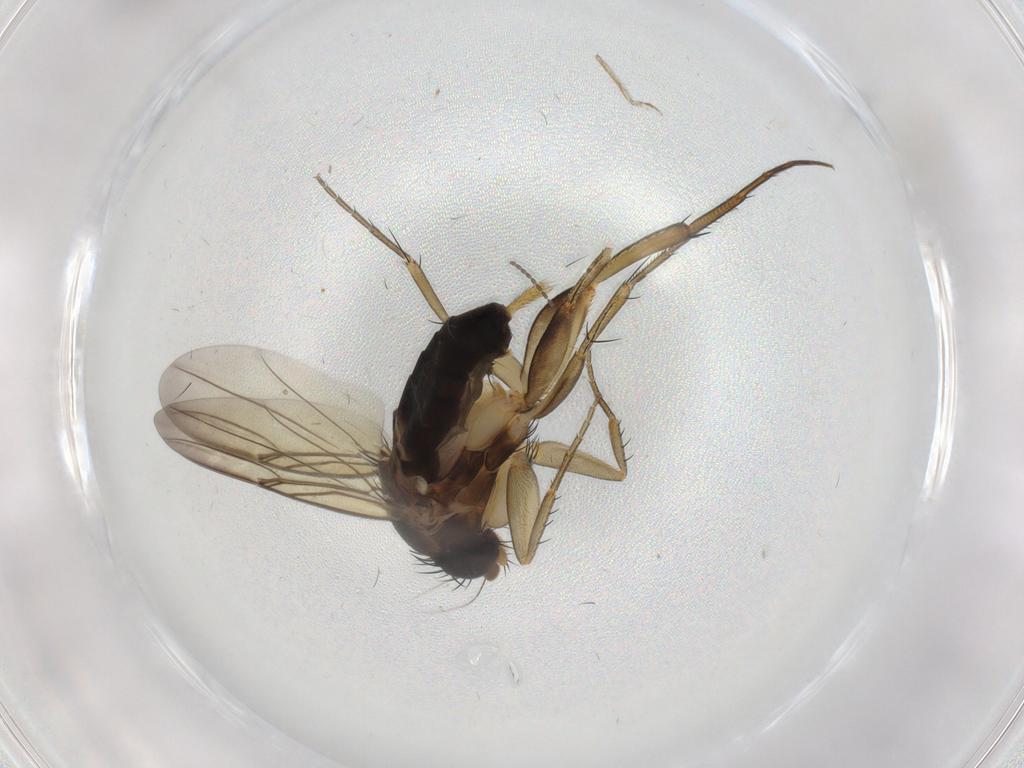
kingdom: Animalia
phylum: Arthropoda
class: Insecta
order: Diptera
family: Phoridae
